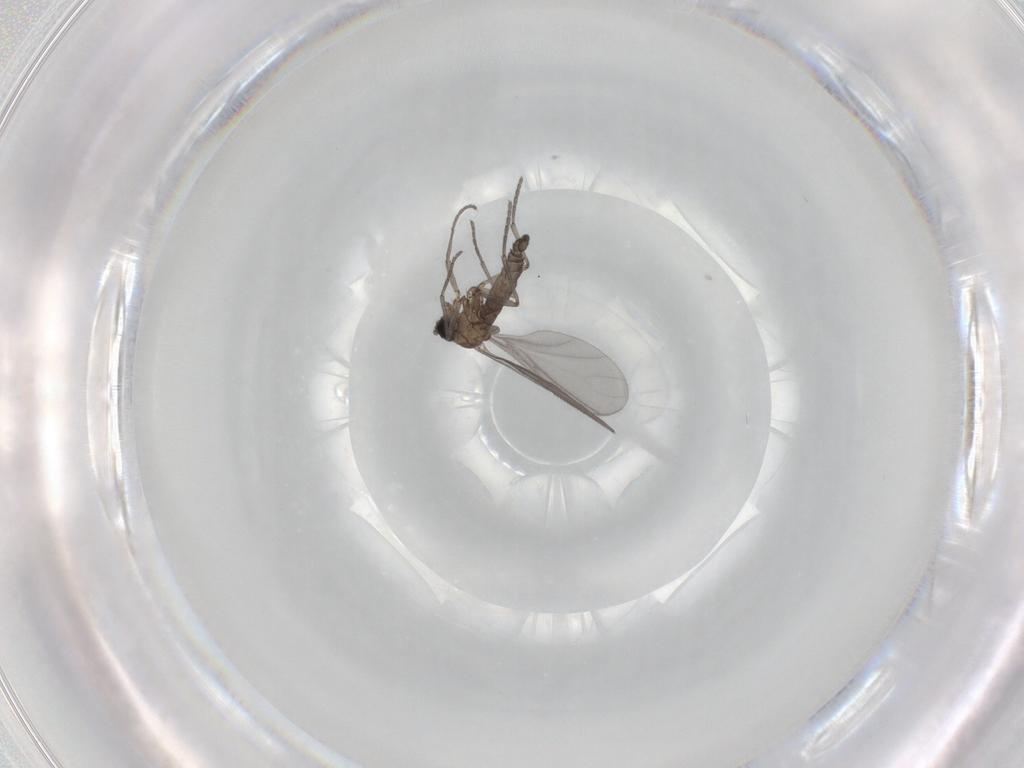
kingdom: Animalia
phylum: Arthropoda
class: Insecta
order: Diptera
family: Sciaridae
